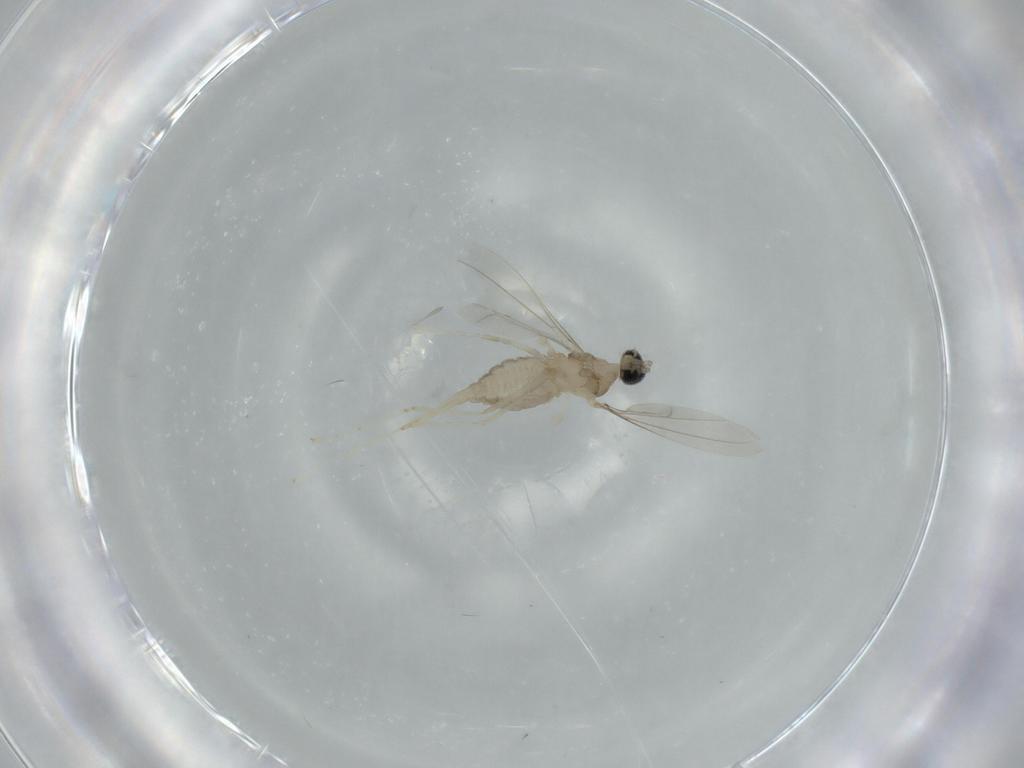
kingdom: Animalia
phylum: Arthropoda
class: Insecta
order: Diptera
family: Cecidomyiidae
